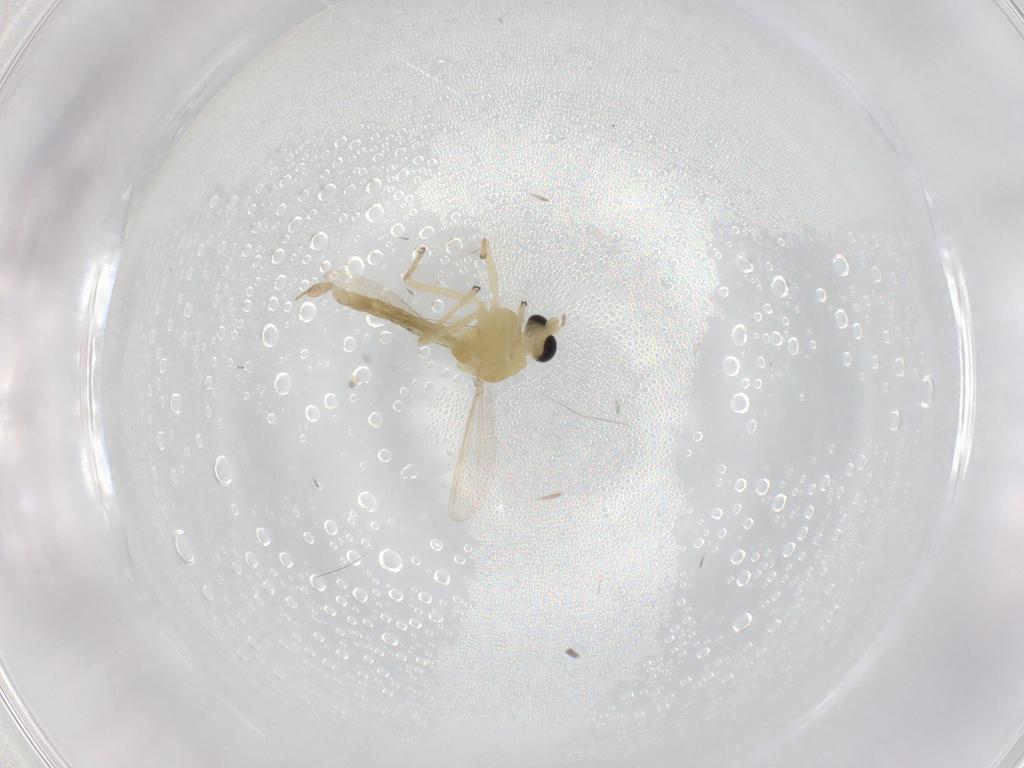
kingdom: Animalia
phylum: Arthropoda
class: Insecta
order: Diptera
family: Chironomidae
